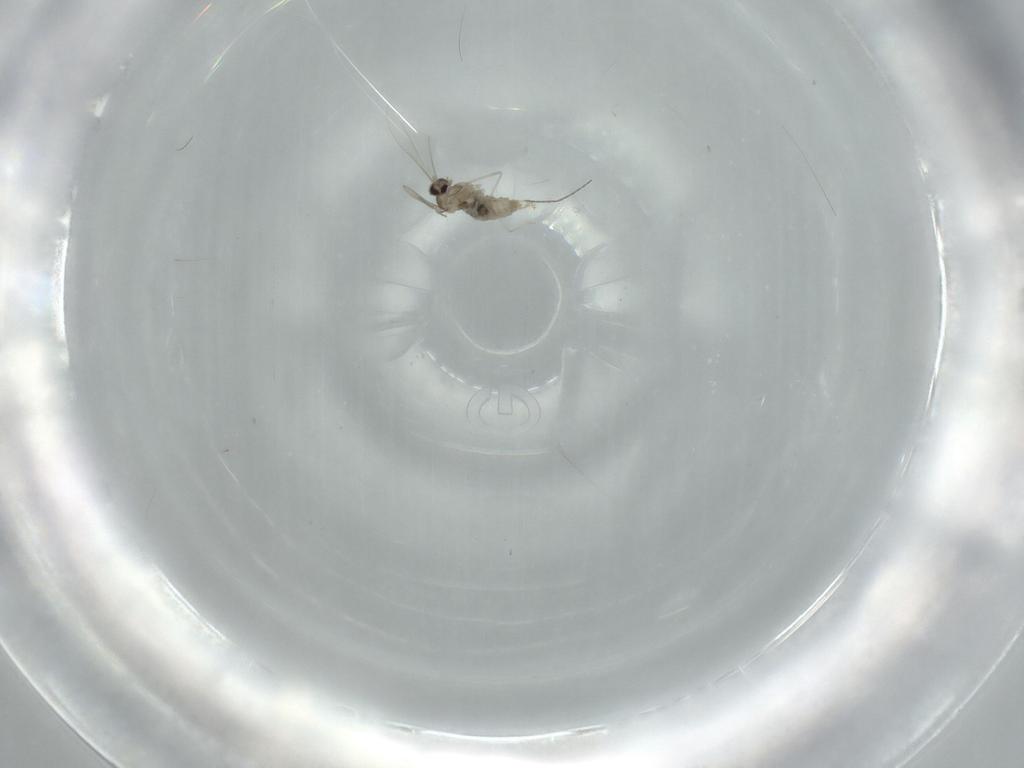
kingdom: Animalia
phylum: Arthropoda
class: Insecta
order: Diptera
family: Cecidomyiidae
